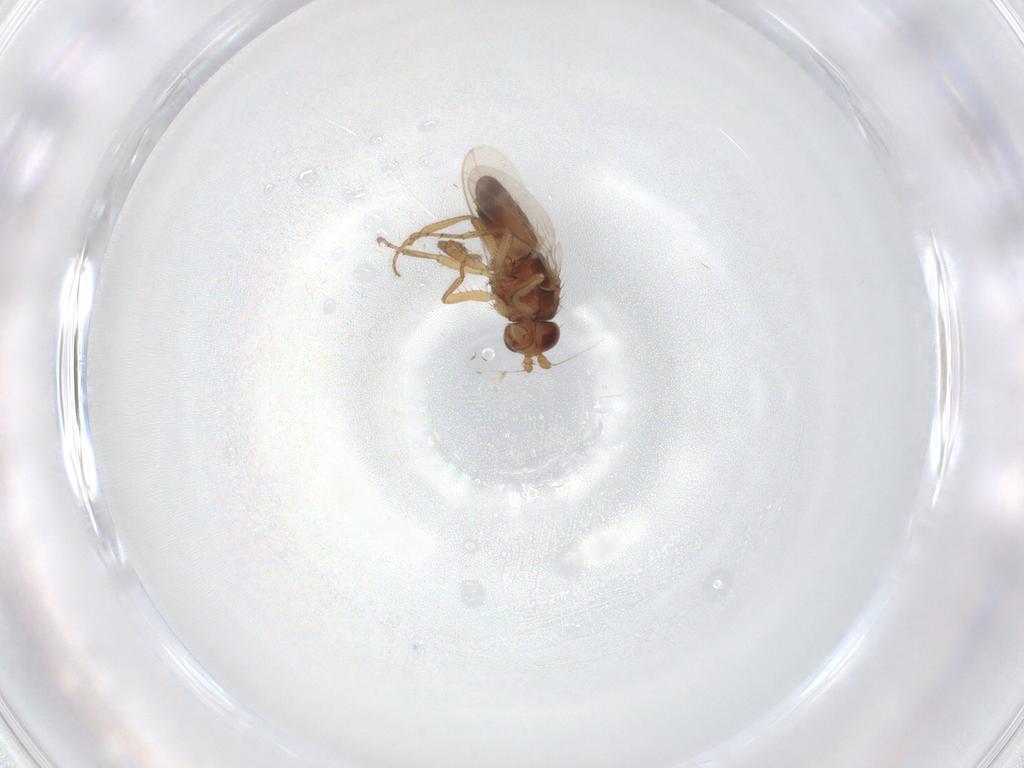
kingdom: Animalia
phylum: Arthropoda
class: Insecta
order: Diptera
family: Sphaeroceridae
